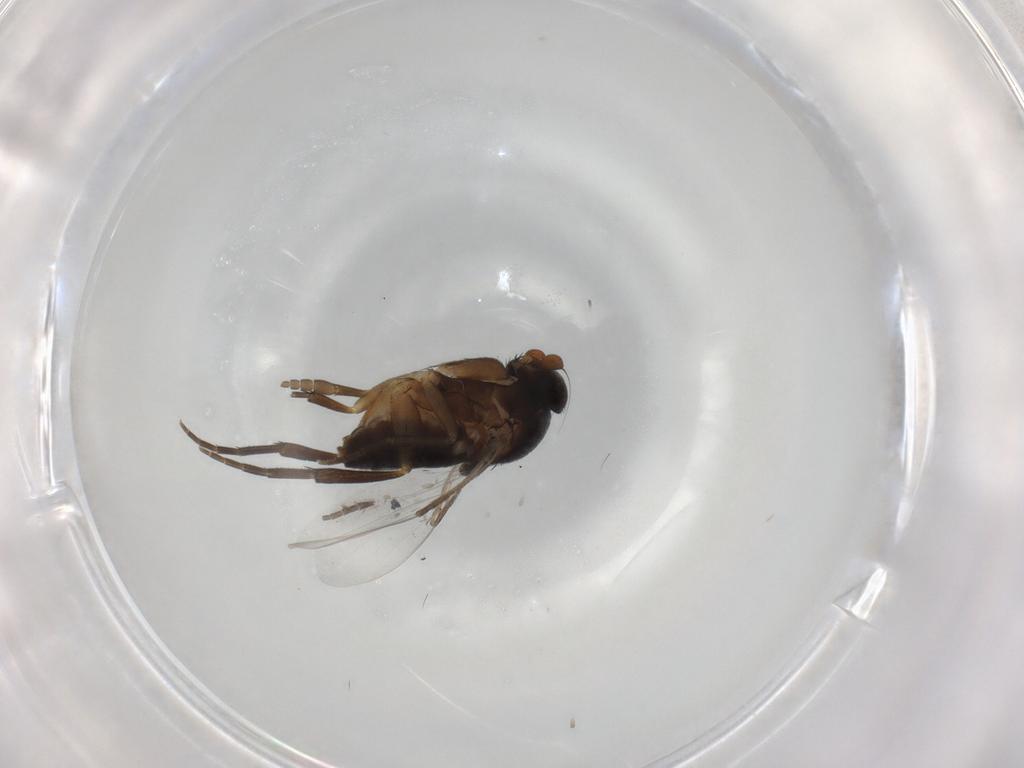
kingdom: Animalia
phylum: Arthropoda
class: Insecta
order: Diptera
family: Phoridae
